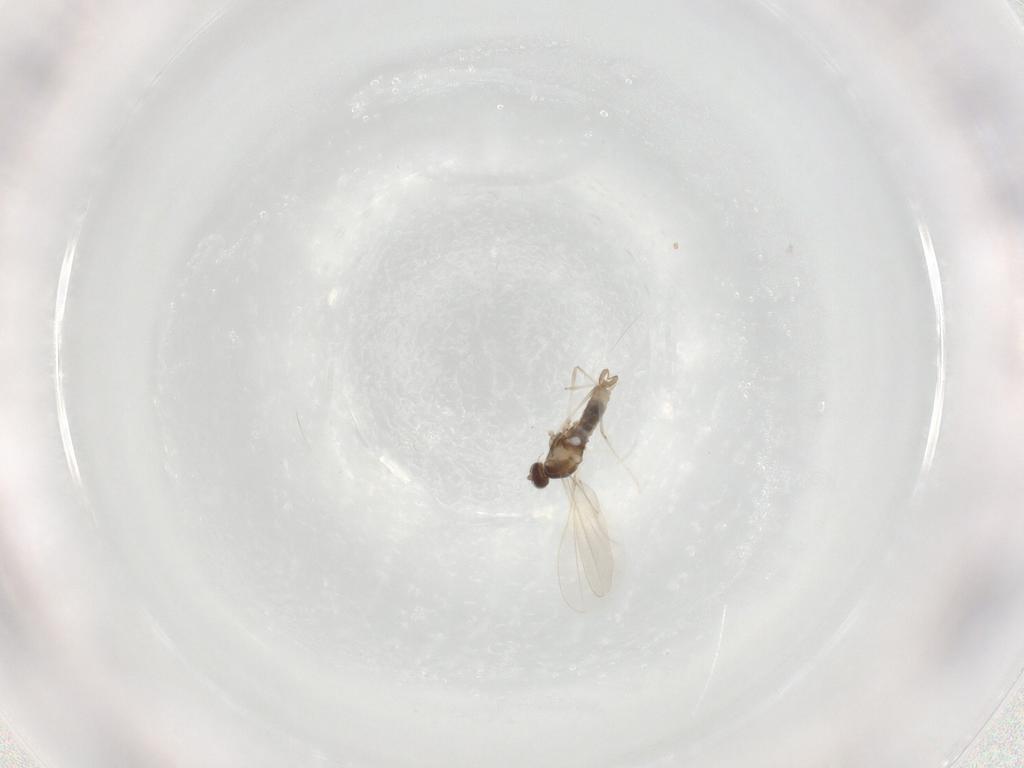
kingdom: Animalia
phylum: Arthropoda
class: Insecta
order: Diptera
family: Cecidomyiidae
